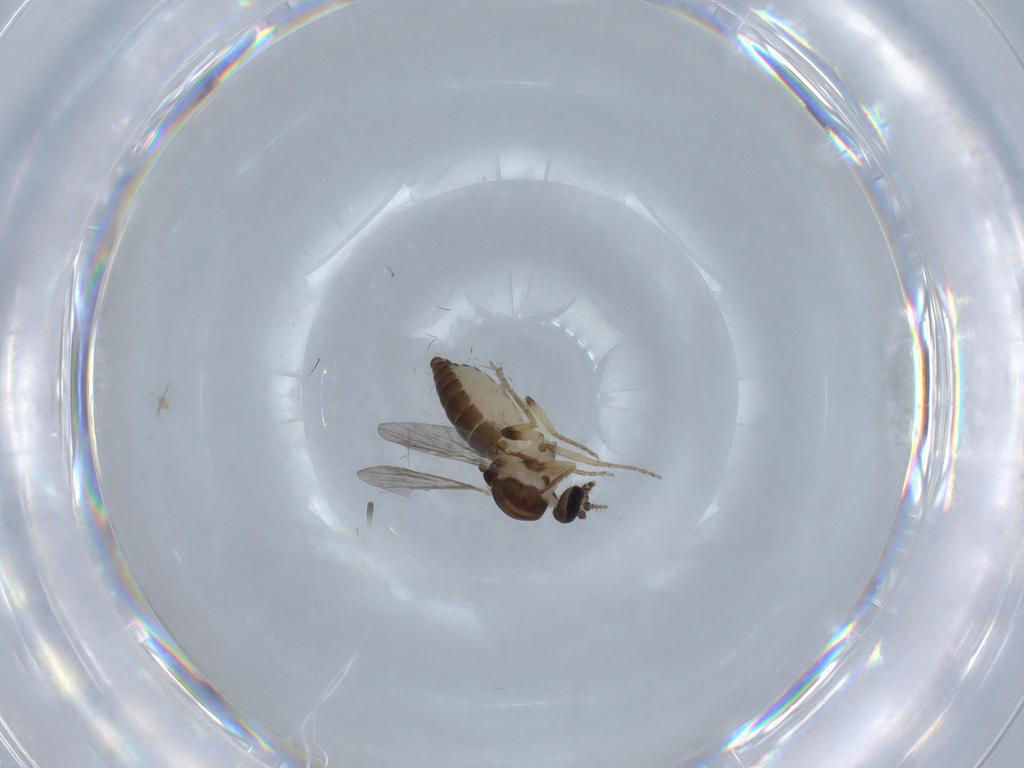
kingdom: Animalia
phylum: Arthropoda
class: Insecta
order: Diptera
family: Ceratopogonidae
